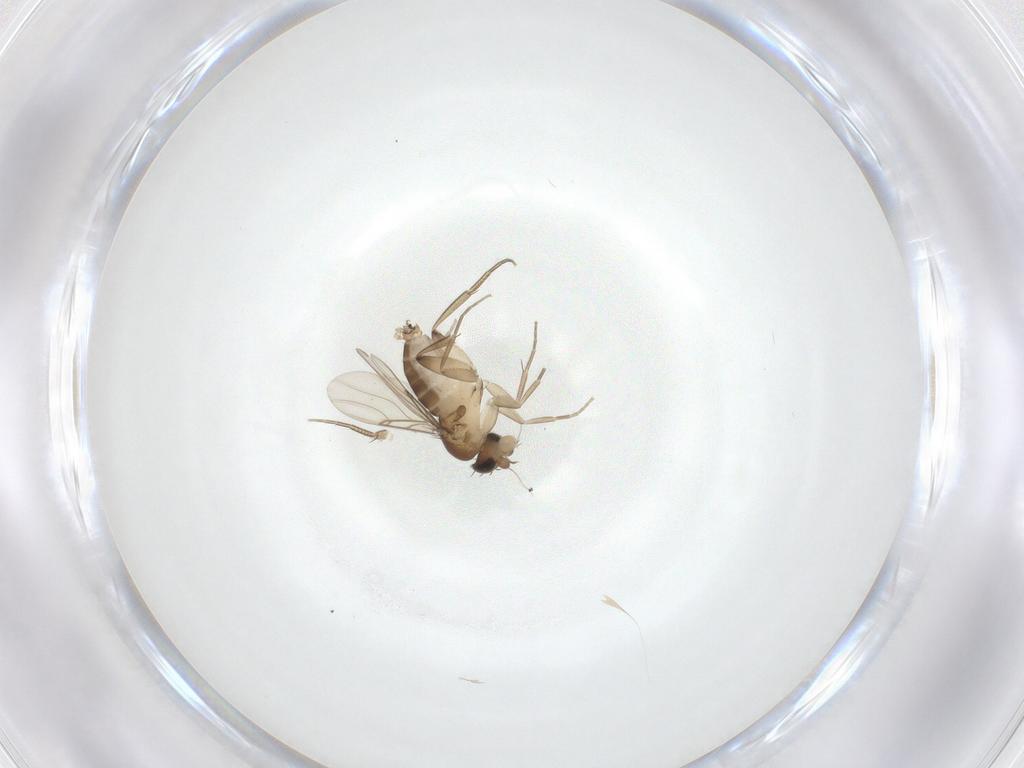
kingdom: Animalia
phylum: Arthropoda
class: Insecta
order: Diptera
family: Phoridae
